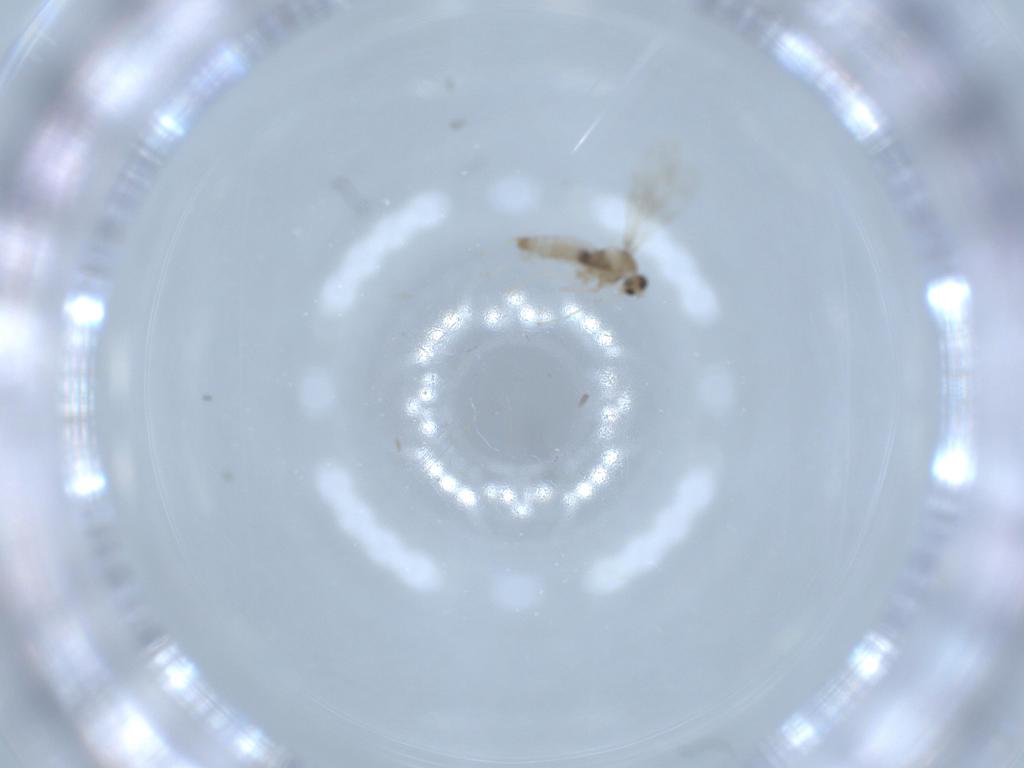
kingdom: Animalia
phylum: Arthropoda
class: Insecta
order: Diptera
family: Cecidomyiidae
